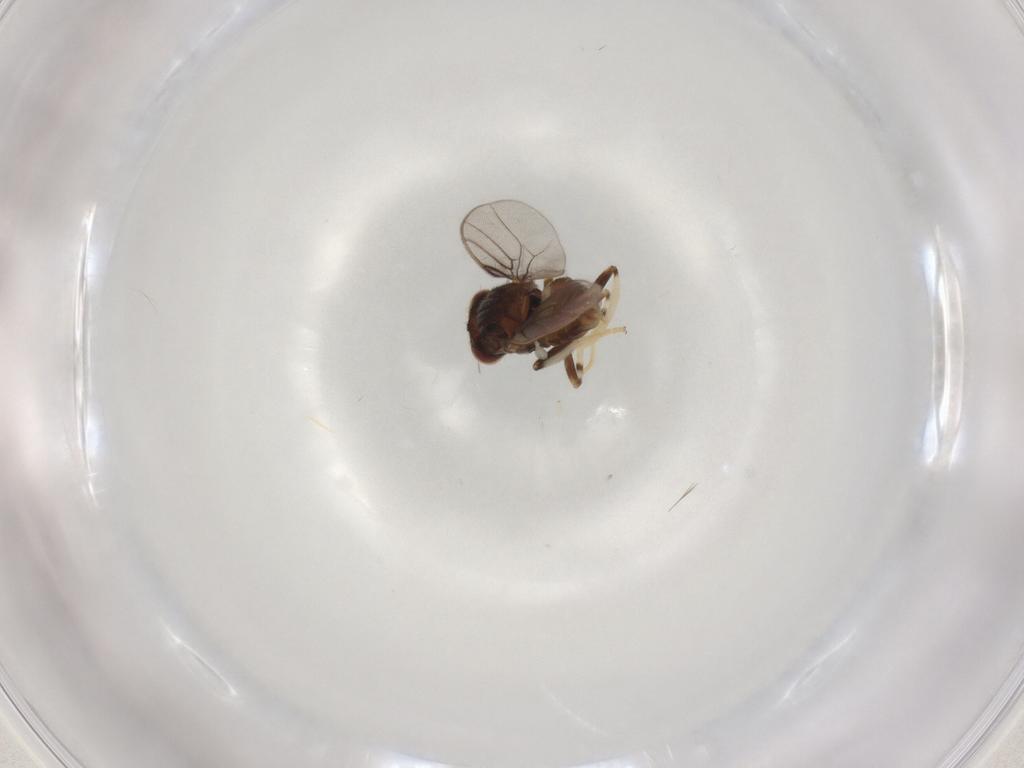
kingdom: Animalia
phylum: Arthropoda
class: Insecta
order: Diptera
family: Chloropidae
